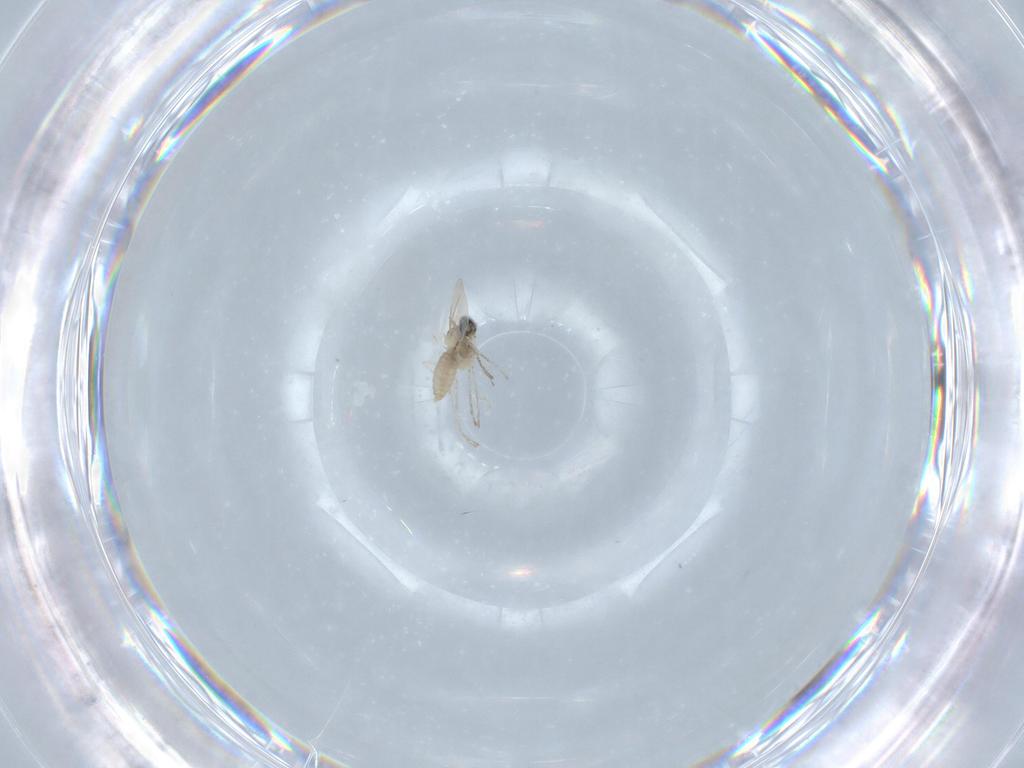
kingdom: Animalia
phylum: Arthropoda
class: Insecta
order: Diptera
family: Cecidomyiidae
